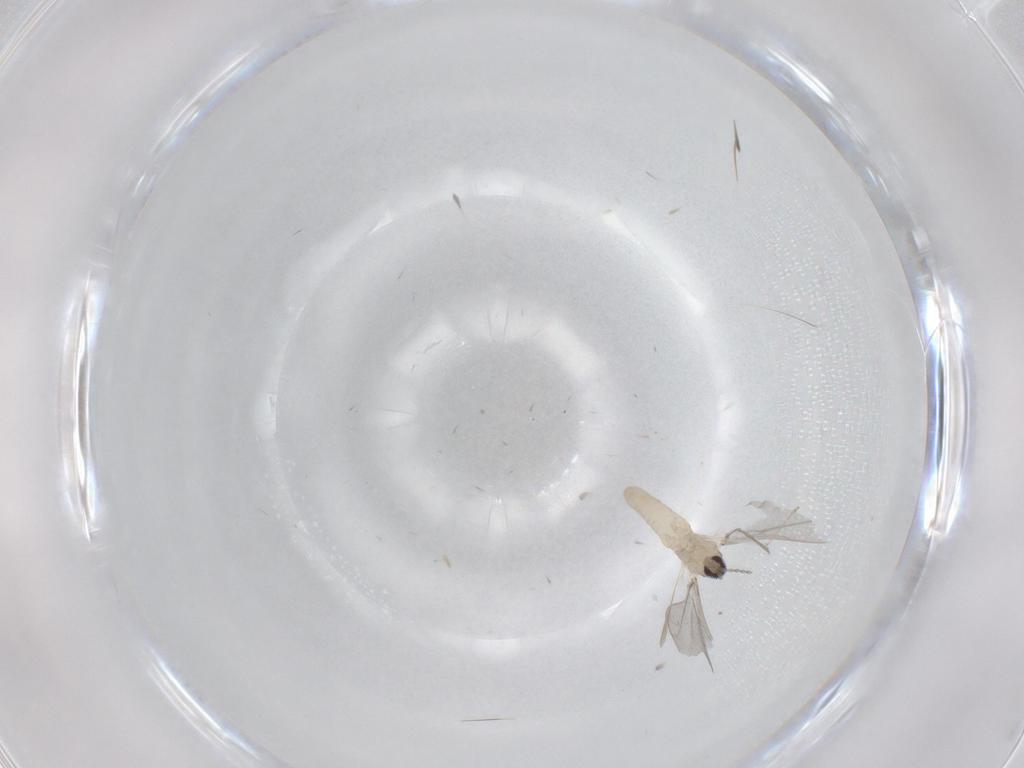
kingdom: Animalia
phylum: Arthropoda
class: Insecta
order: Diptera
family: Cecidomyiidae
